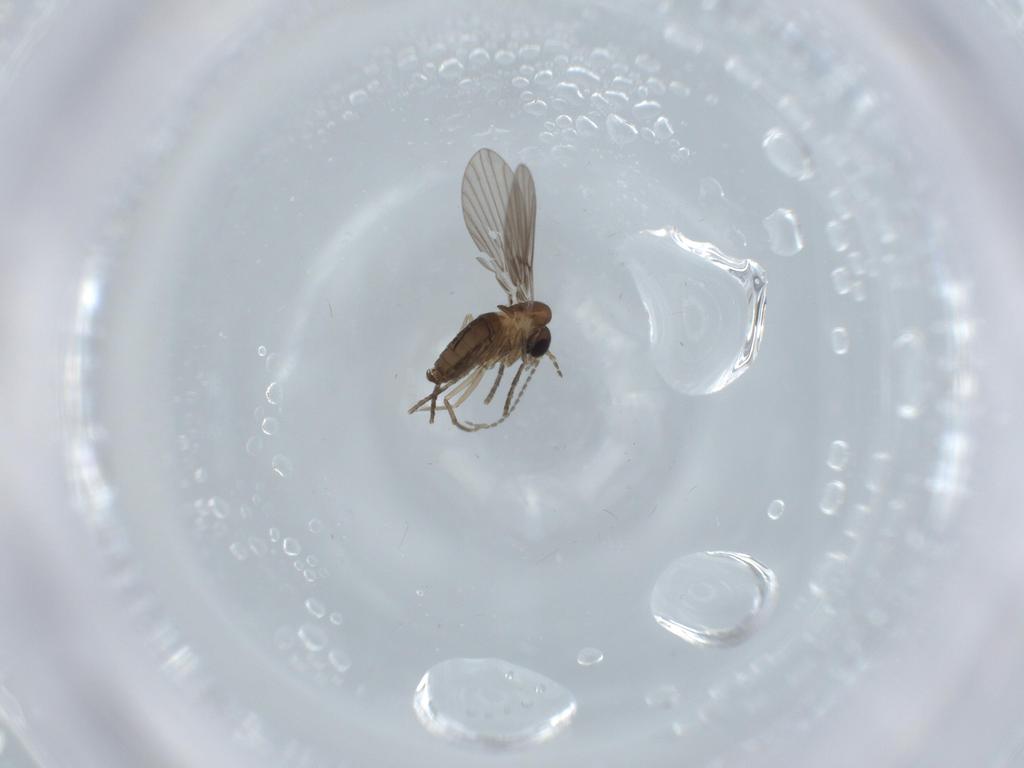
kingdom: Animalia
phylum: Arthropoda
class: Insecta
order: Diptera
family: Psychodidae
